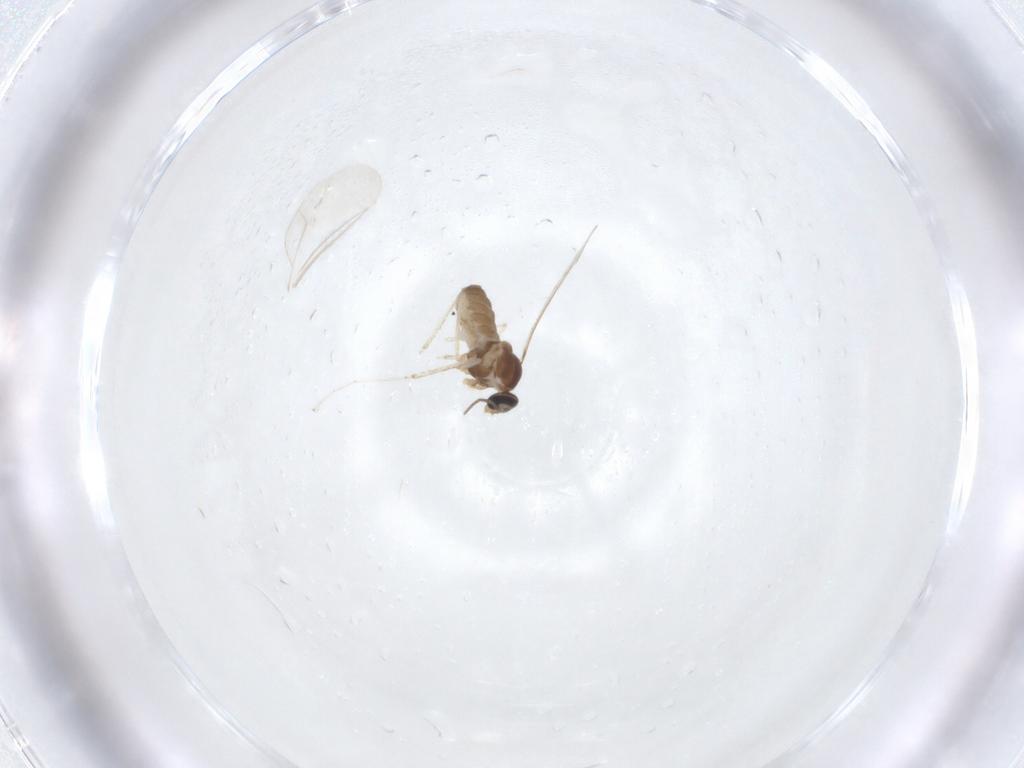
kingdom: Animalia
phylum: Arthropoda
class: Insecta
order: Diptera
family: Cecidomyiidae
